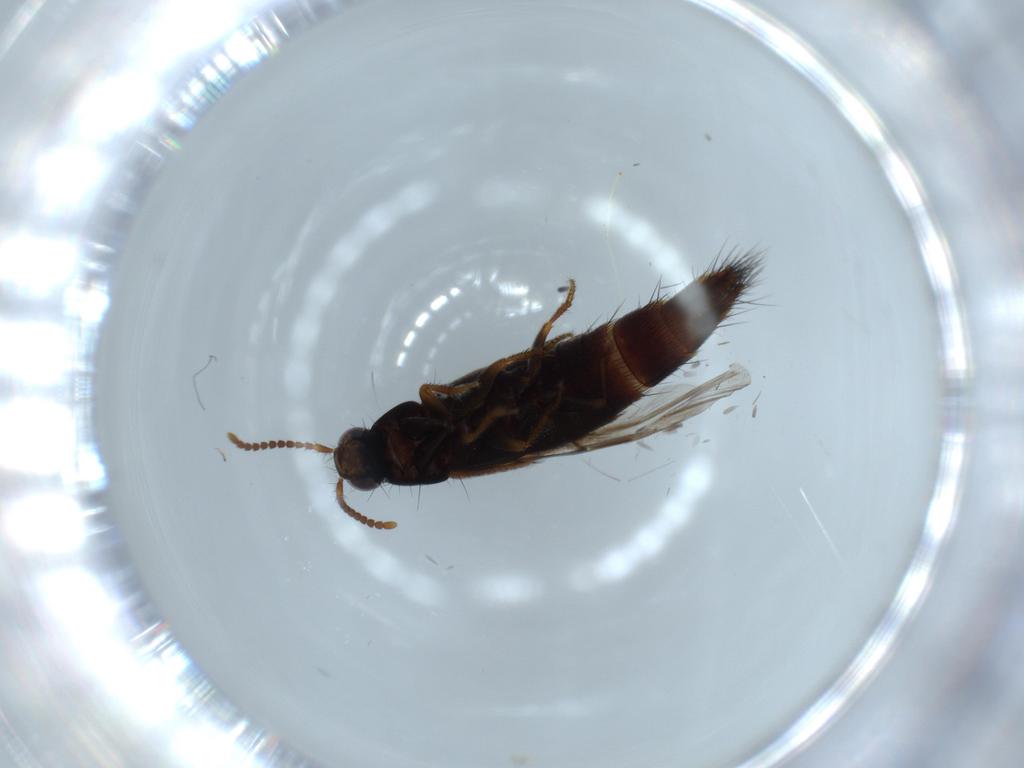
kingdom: Animalia
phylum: Arthropoda
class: Insecta
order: Coleoptera
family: Staphylinidae
